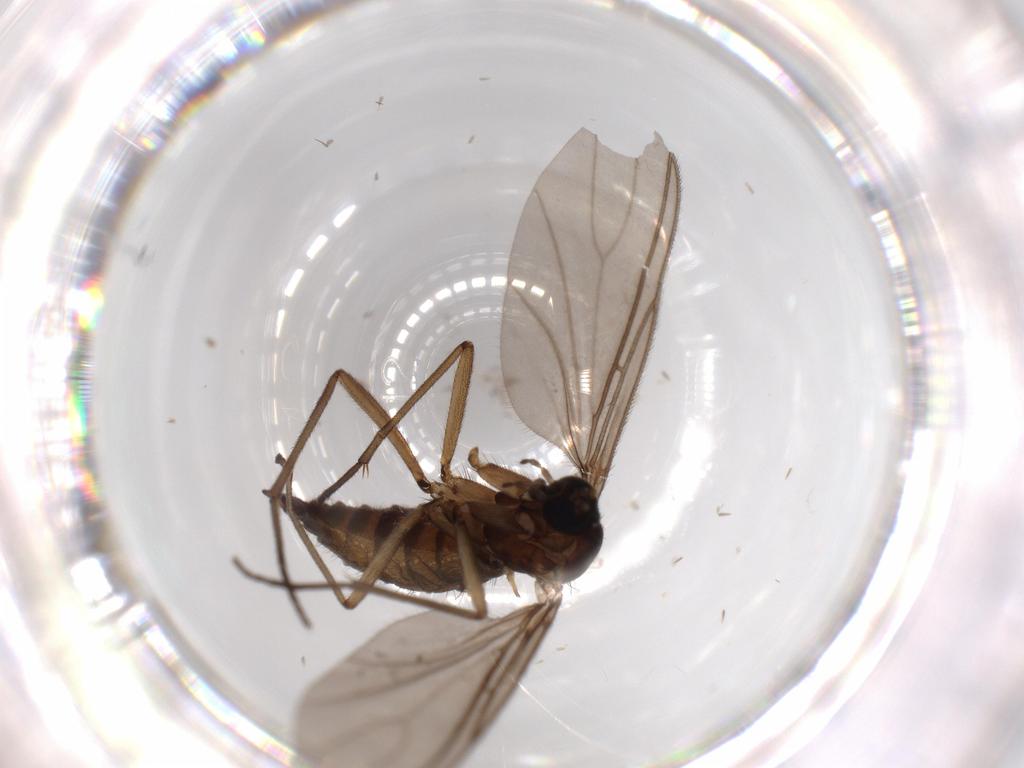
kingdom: Animalia
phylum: Arthropoda
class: Insecta
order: Diptera
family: Sciaridae
